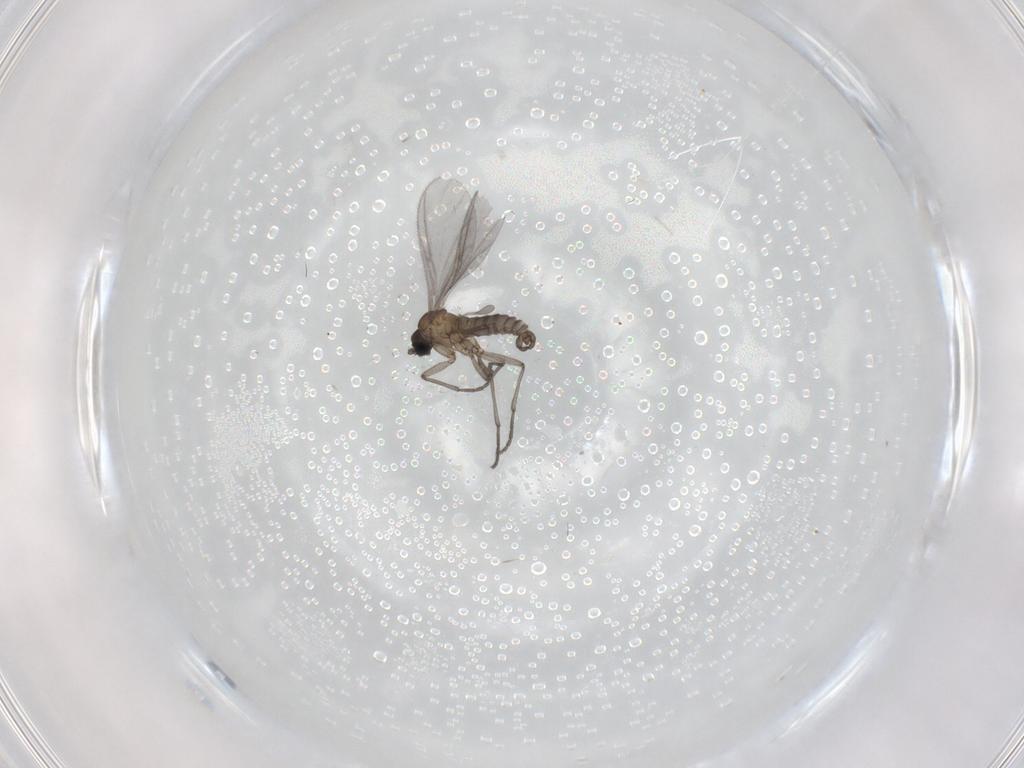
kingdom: Animalia
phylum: Arthropoda
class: Insecta
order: Diptera
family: Sciaridae
